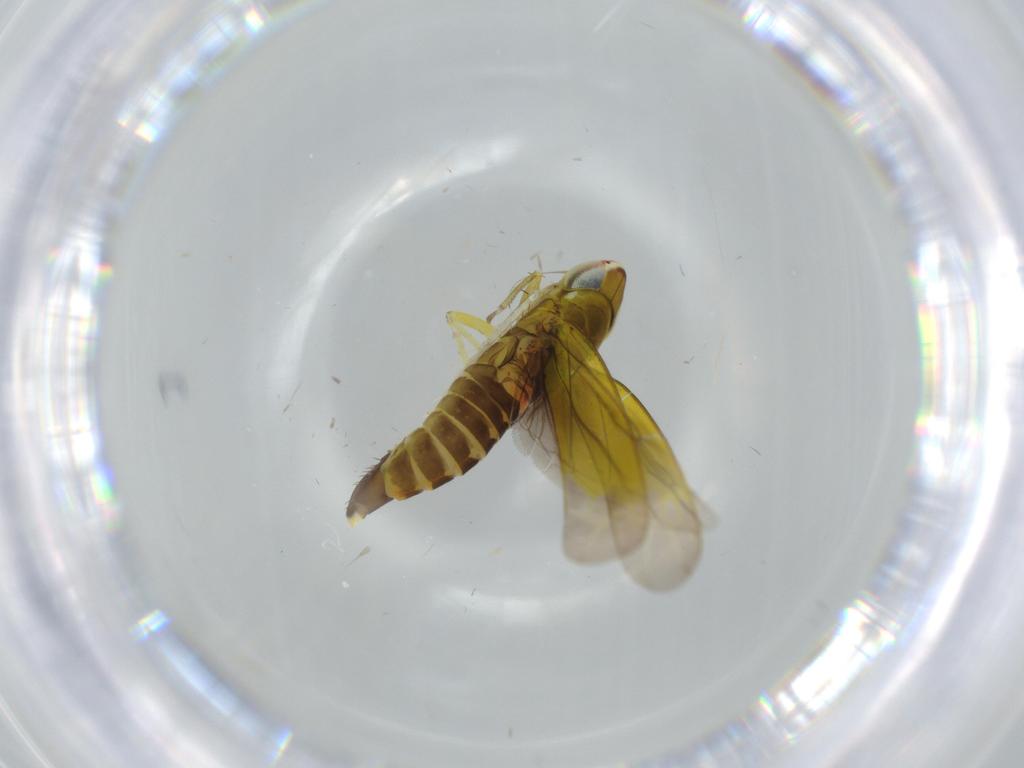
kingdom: Animalia
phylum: Arthropoda
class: Insecta
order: Hemiptera
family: Cicadellidae
